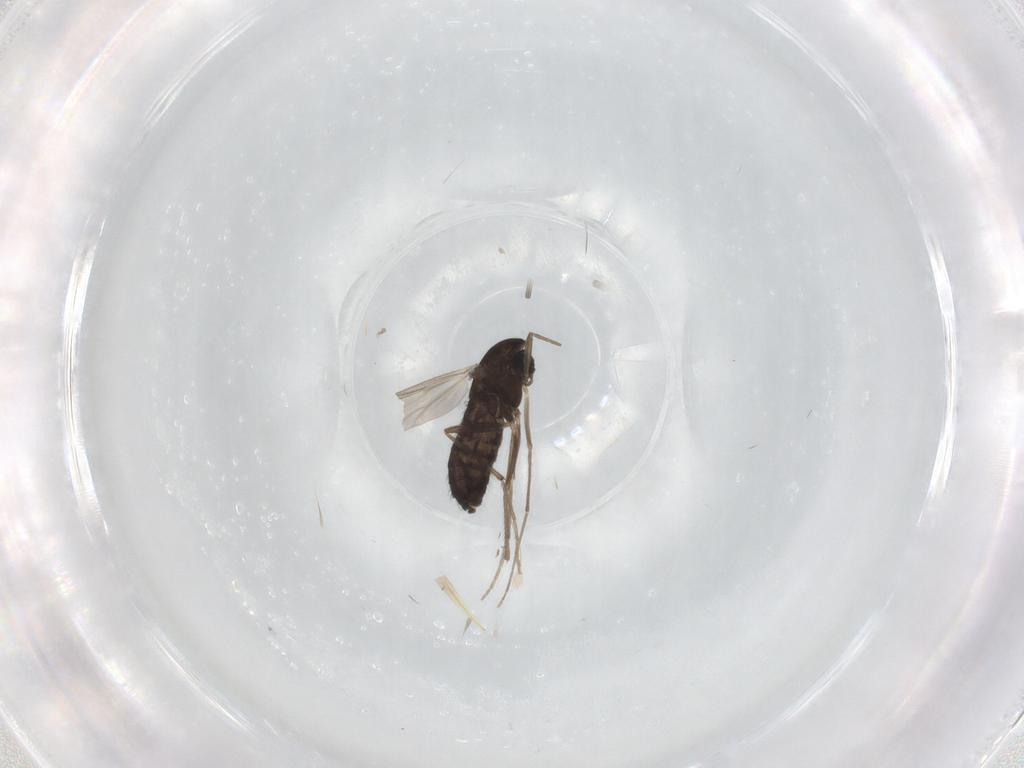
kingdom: Animalia
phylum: Arthropoda
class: Insecta
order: Diptera
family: Chironomidae
